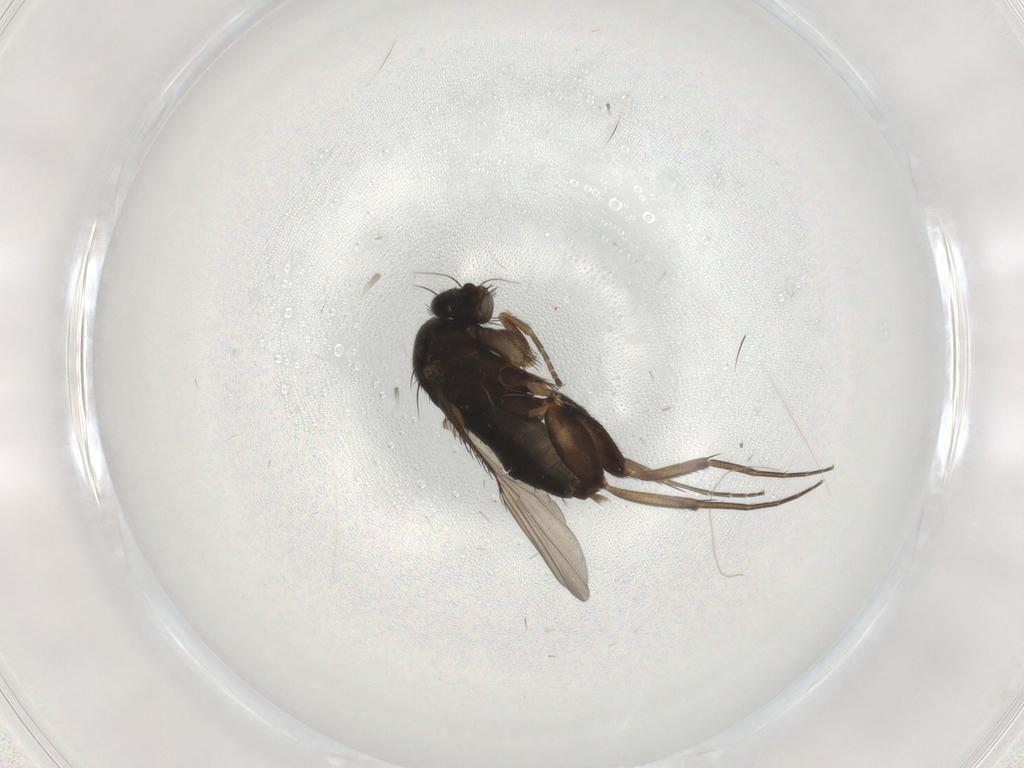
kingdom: Animalia
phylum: Arthropoda
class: Insecta
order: Diptera
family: Phoridae
